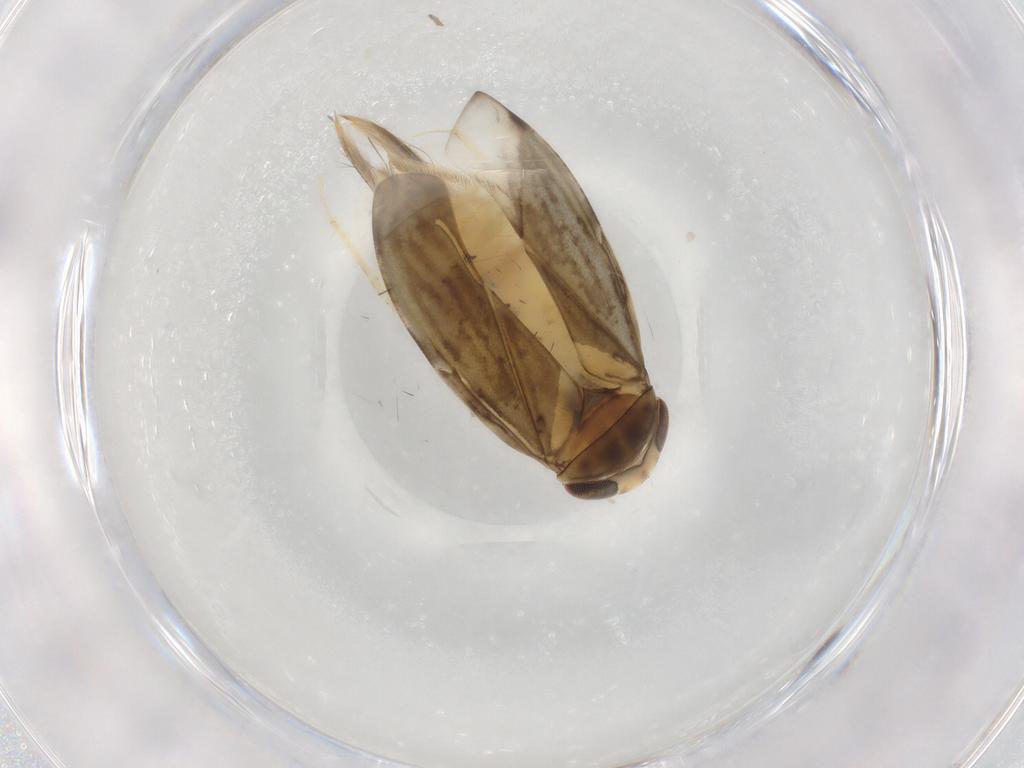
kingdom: Animalia
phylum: Arthropoda
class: Insecta
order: Hemiptera
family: Corixidae
